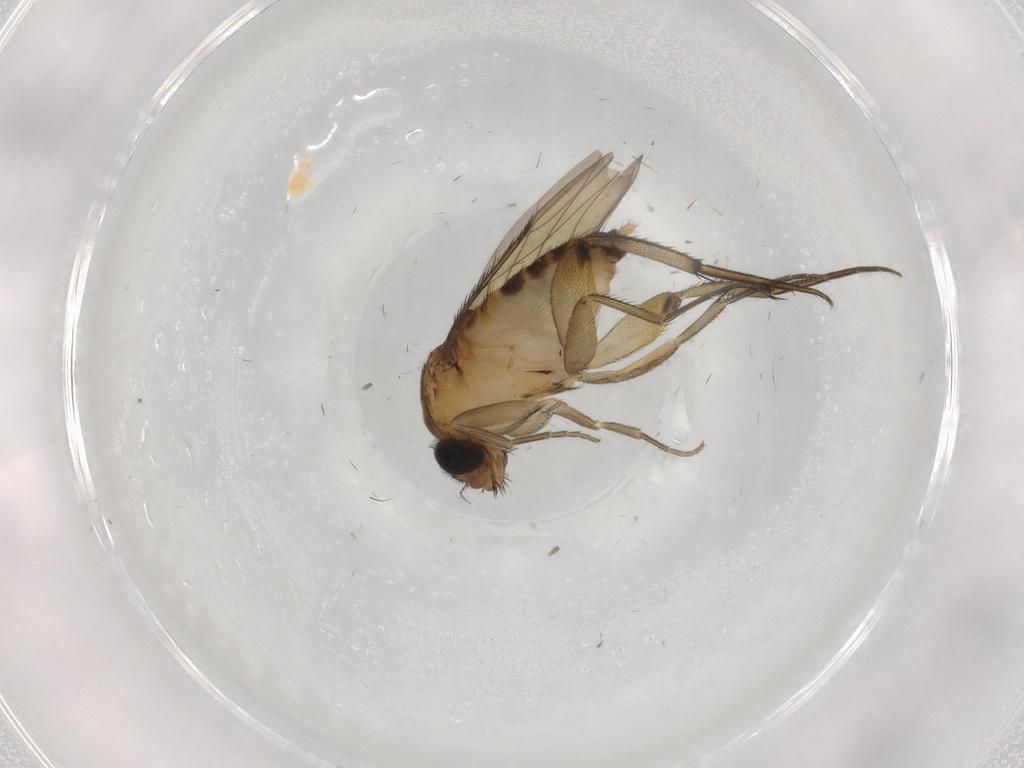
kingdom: Animalia
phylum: Arthropoda
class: Insecta
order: Diptera
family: Phoridae
